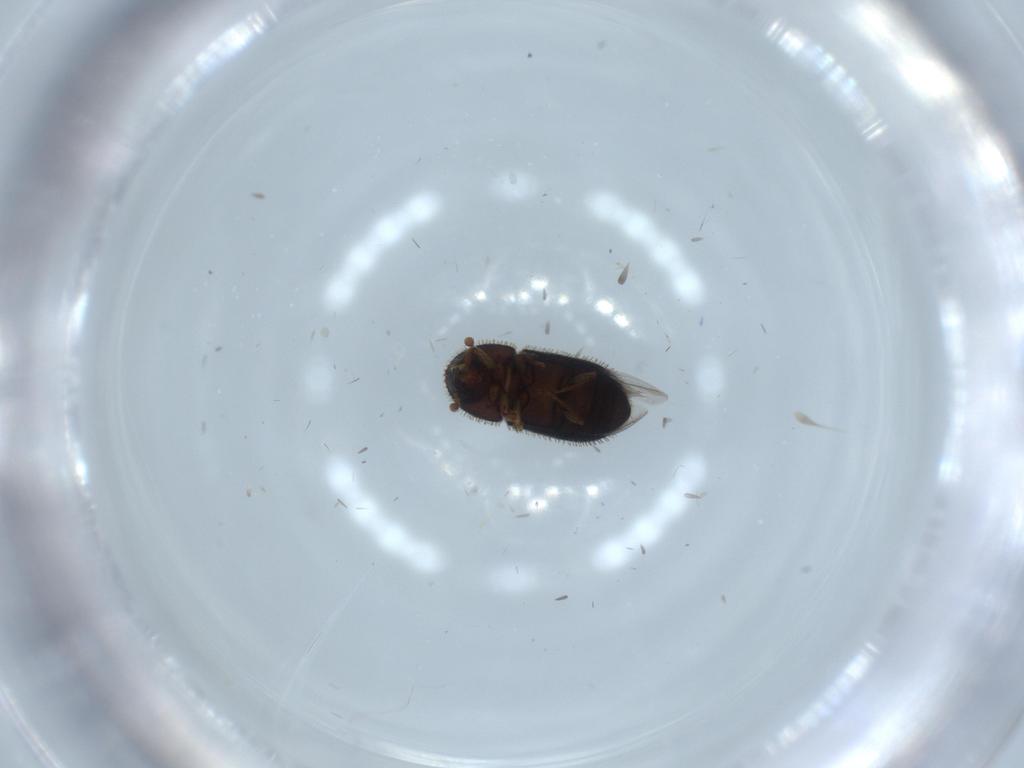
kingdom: Animalia
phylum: Arthropoda
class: Insecta
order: Coleoptera
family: Curculionidae
